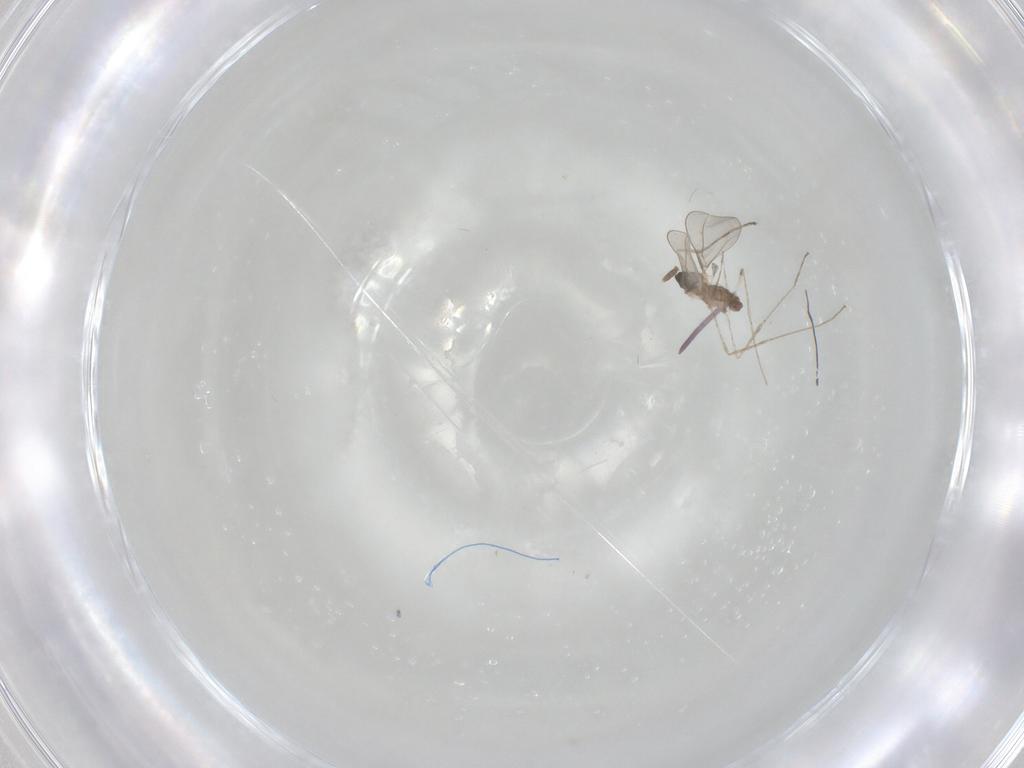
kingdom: Animalia
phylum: Arthropoda
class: Insecta
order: Diptera
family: Cecidomyiidae
